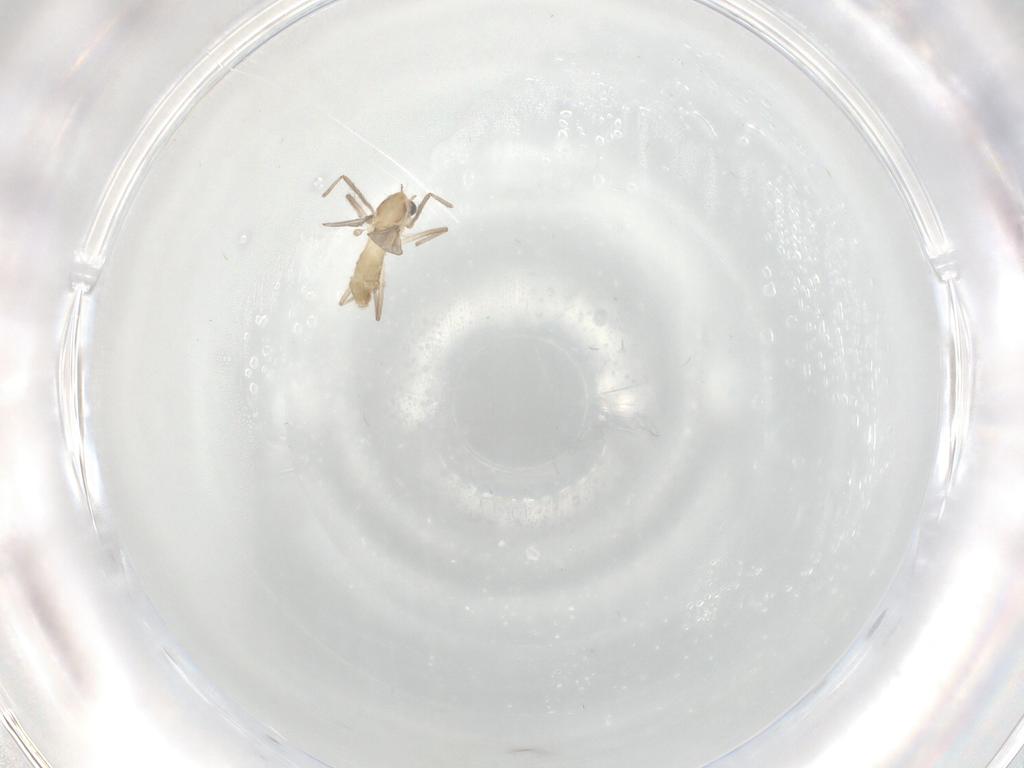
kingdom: Animalia
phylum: Arthropoda
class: Insecta
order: Diptera
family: Chironomidae
